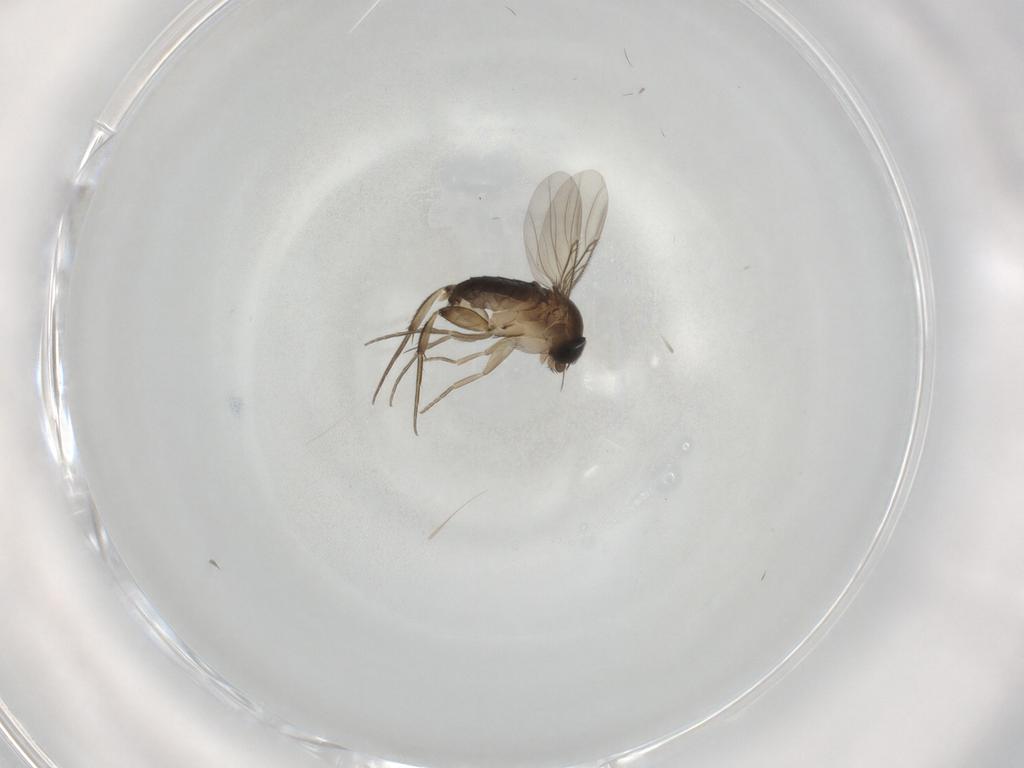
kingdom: Animalia
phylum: Arthropoda
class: Insecta
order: Diptera
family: Phoridae
